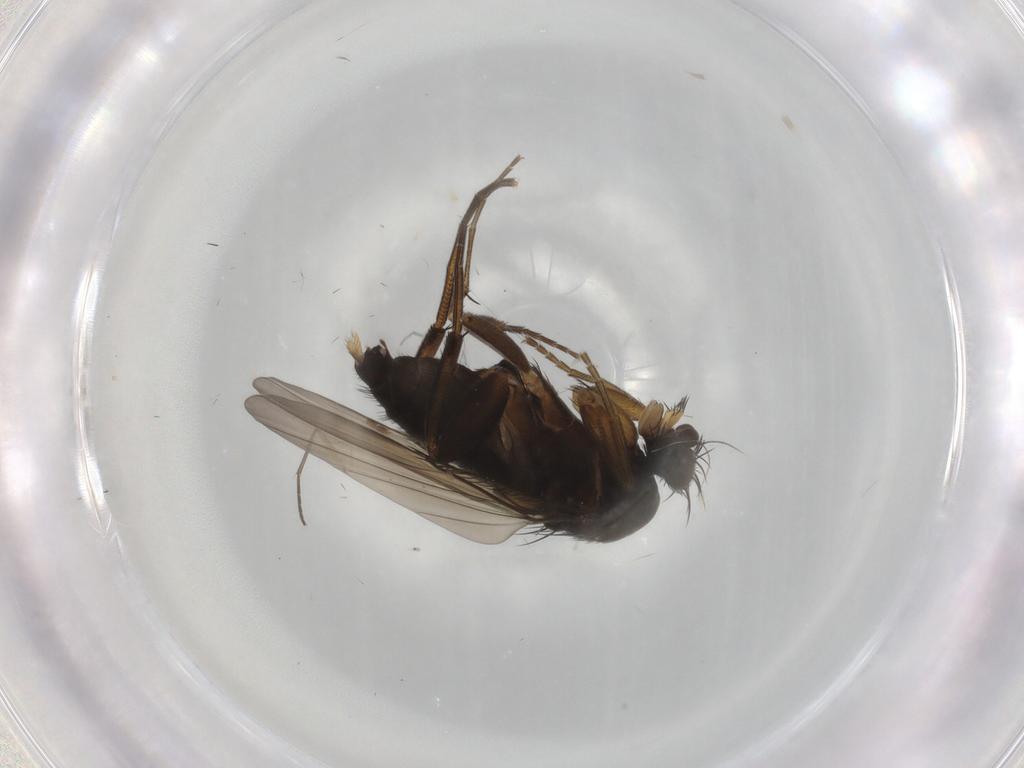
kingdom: Animalia
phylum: Arthropoda
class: Insecta
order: Diptera
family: Phoridae
